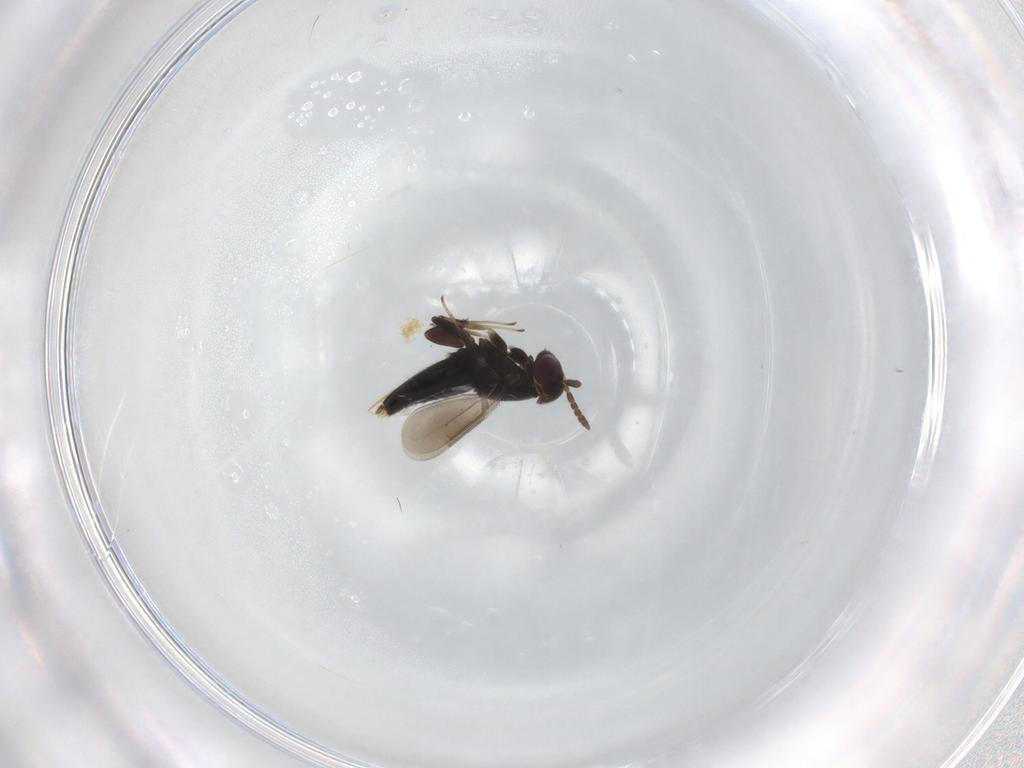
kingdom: Animalia
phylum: Arthropoda
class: Insecta
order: Hymenoptera
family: Aphelinidae
